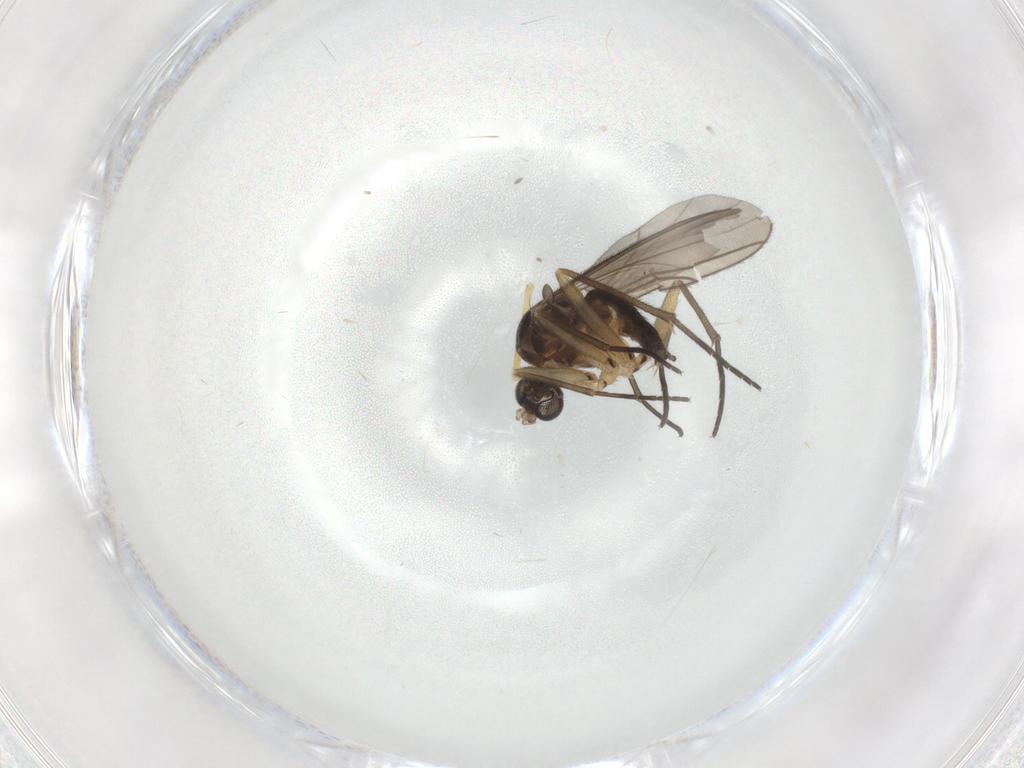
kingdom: Animalia
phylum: Arthropoda
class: Insecta
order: Diptera
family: Sciaridae
